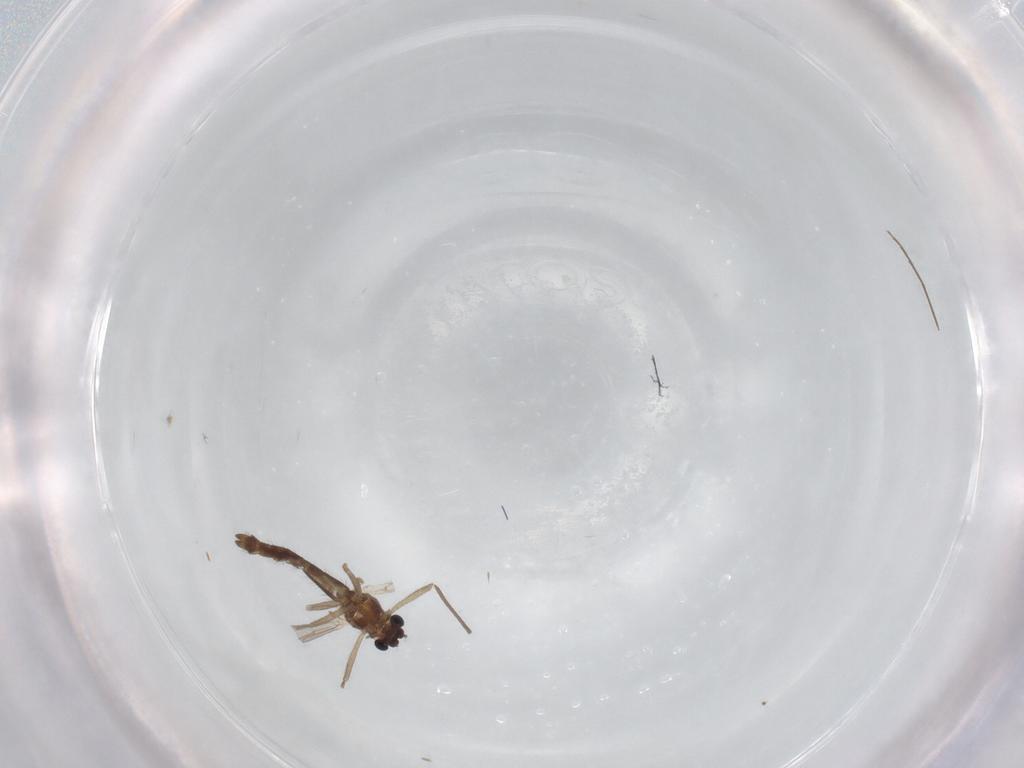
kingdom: Animalia
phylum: Arthropoda
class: Insecta
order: Diptera
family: Chironomidae
